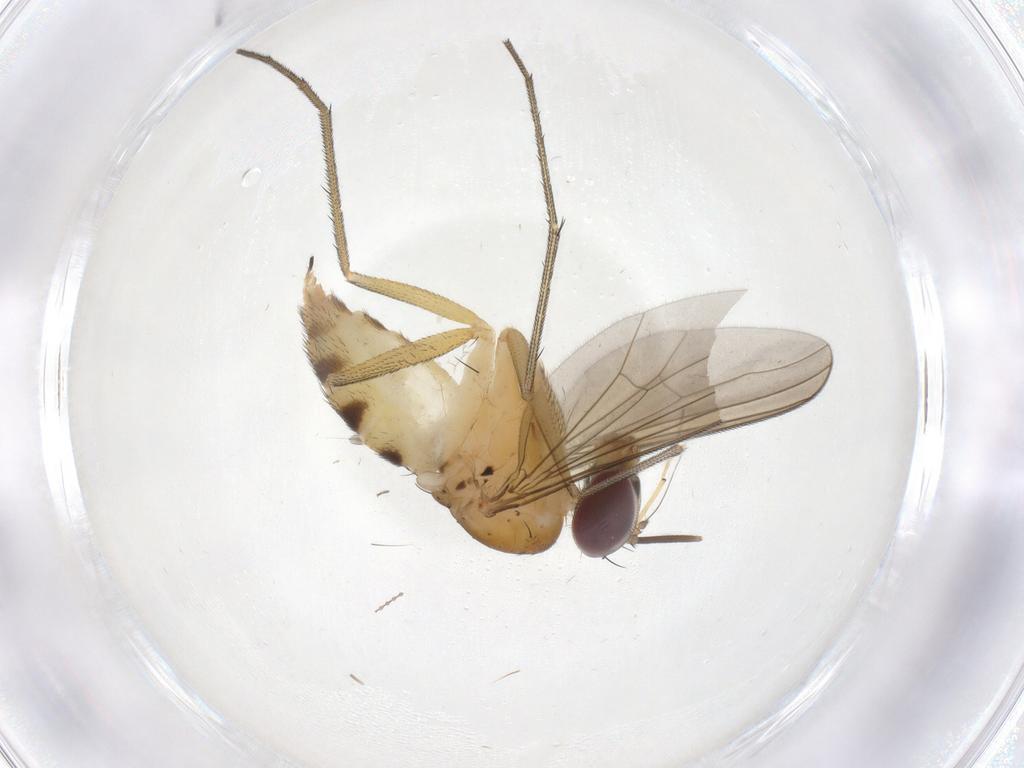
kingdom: Animalia
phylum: Arthropoda
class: Insecta
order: Diptera
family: Dolichopodidae
